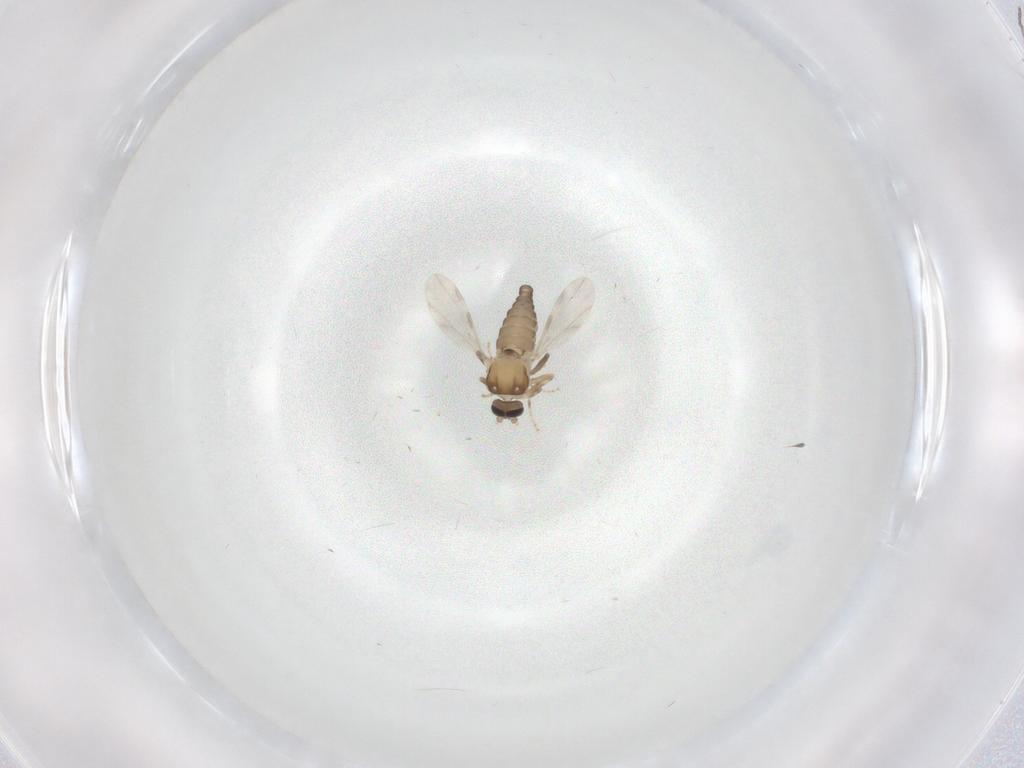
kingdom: Animalia
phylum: Arthropoda
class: Insecta
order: Diptera
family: Ceratopogonidae
